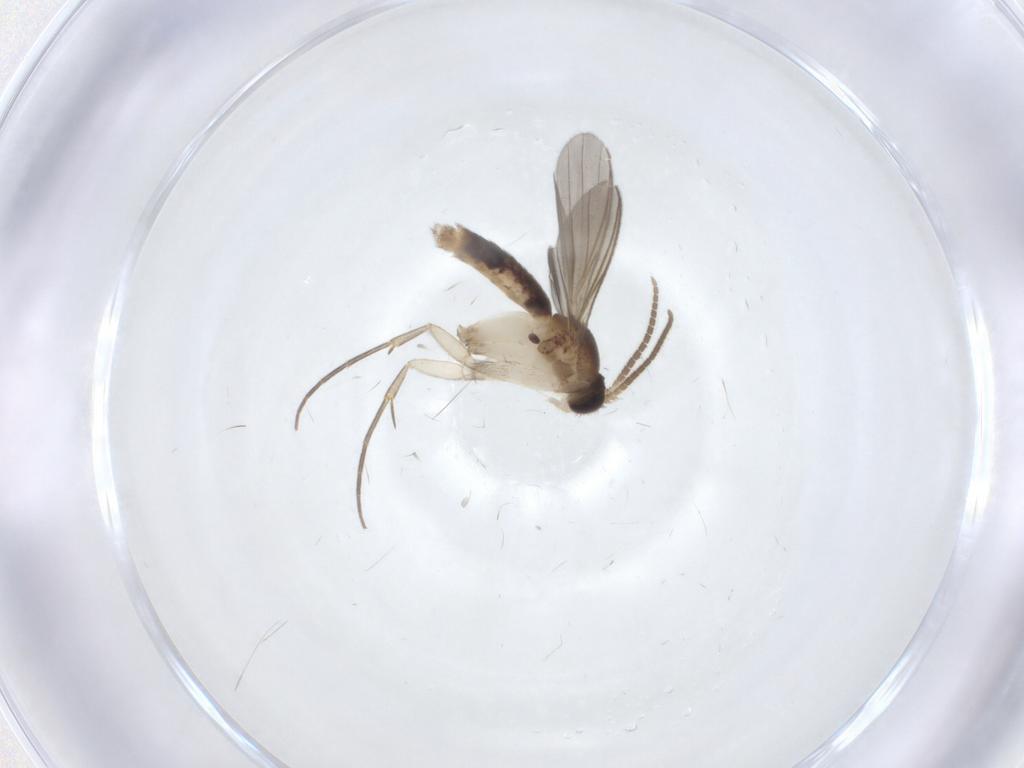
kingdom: Animalia
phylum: Arthropoda
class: Insecta
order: Diptera
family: Mycetophilidae
